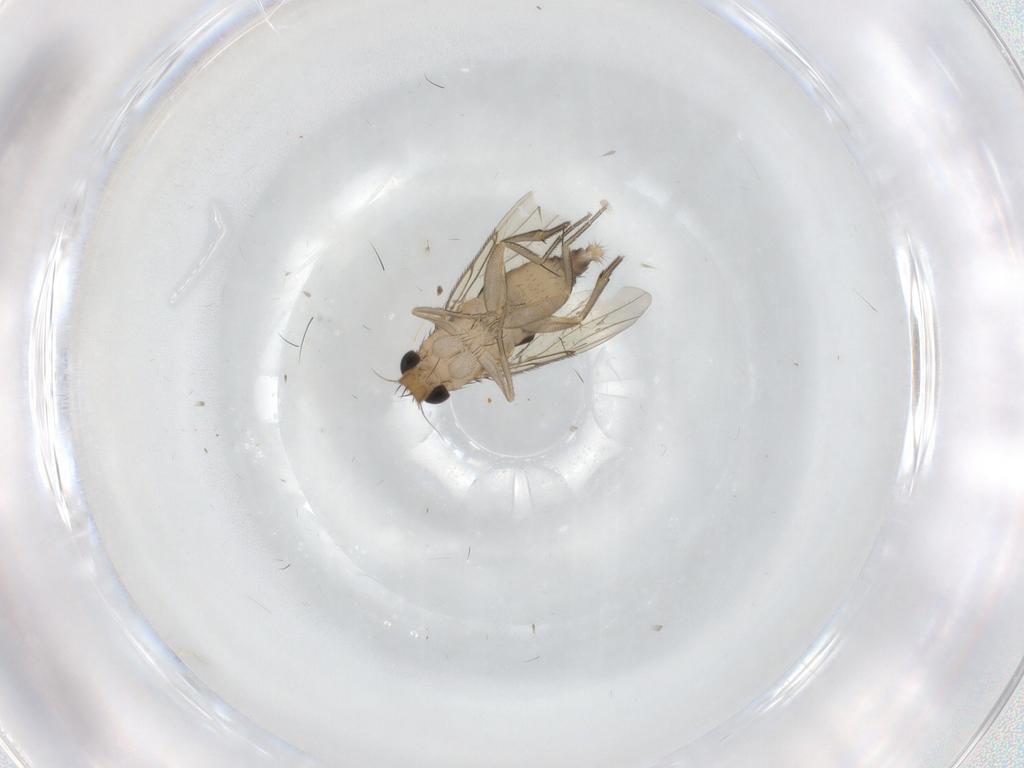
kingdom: Animalia
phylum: Arthropoda
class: Insecta
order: Diptera
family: Phoridae
